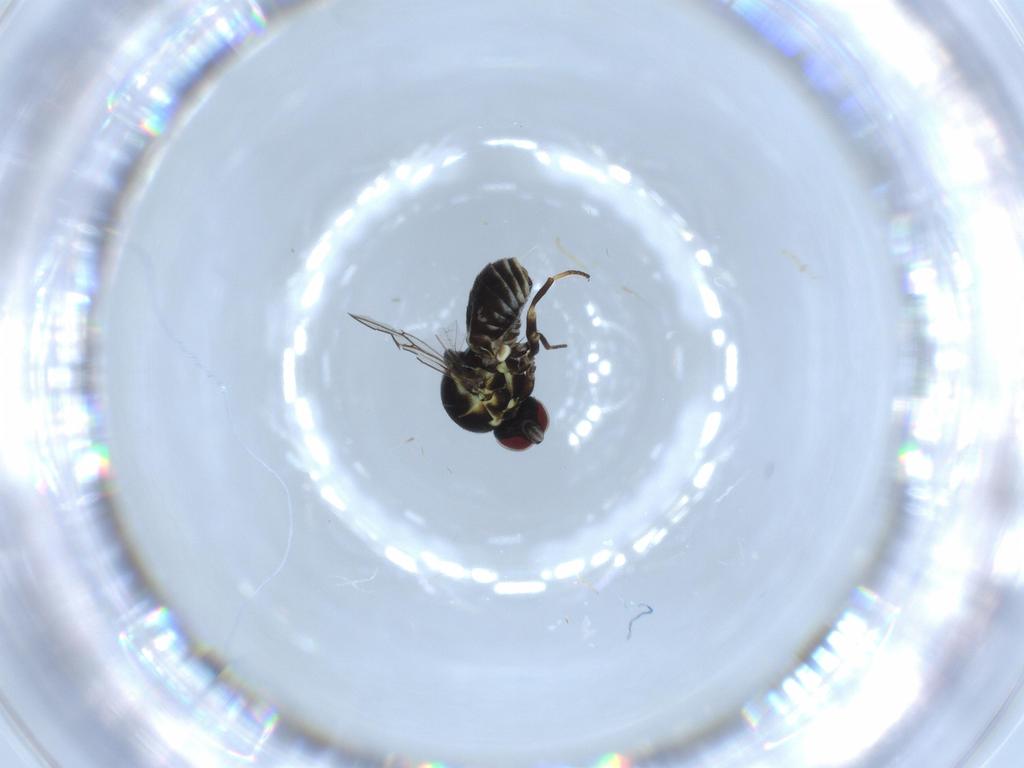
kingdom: Animalia
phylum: Arthropoda
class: Insecta
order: Diptera
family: Mythicomyiidae
